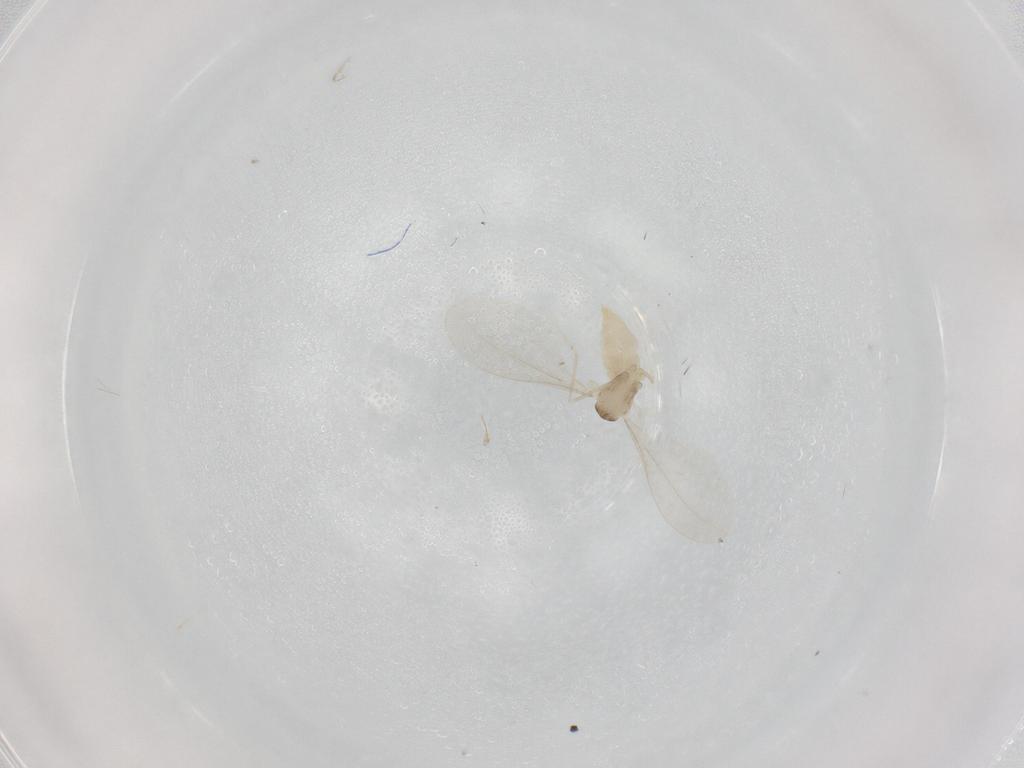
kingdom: Animalia
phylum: Arthropoda
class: Insecta
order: Diptera
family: Cecidomyiidae
